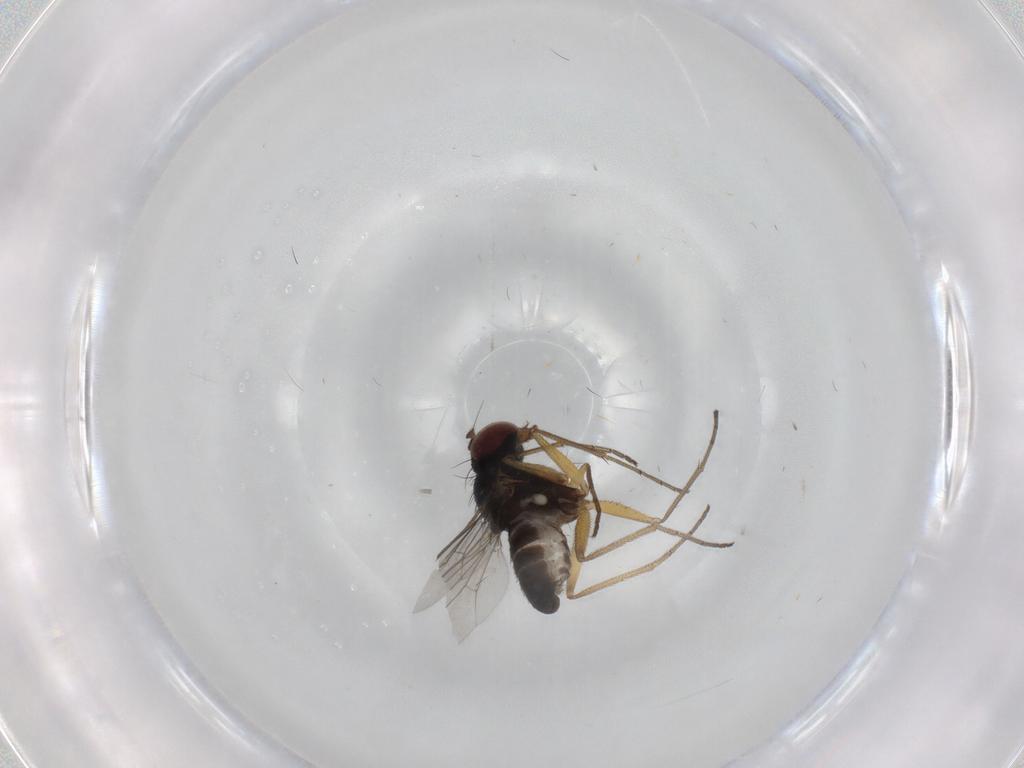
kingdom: Animalia
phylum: Arthropoda
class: Insecta
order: Diptera
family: Dolichopodidae
